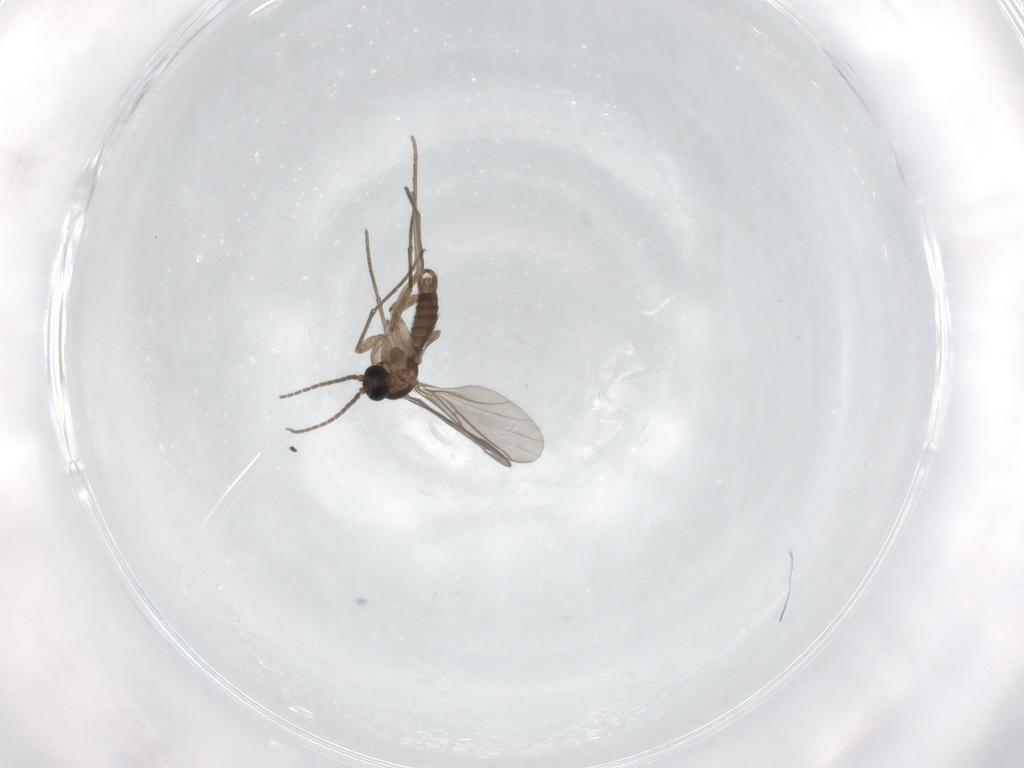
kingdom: Animalia
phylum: Arthropoda
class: Insecta
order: Diptera
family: Sciaridae
